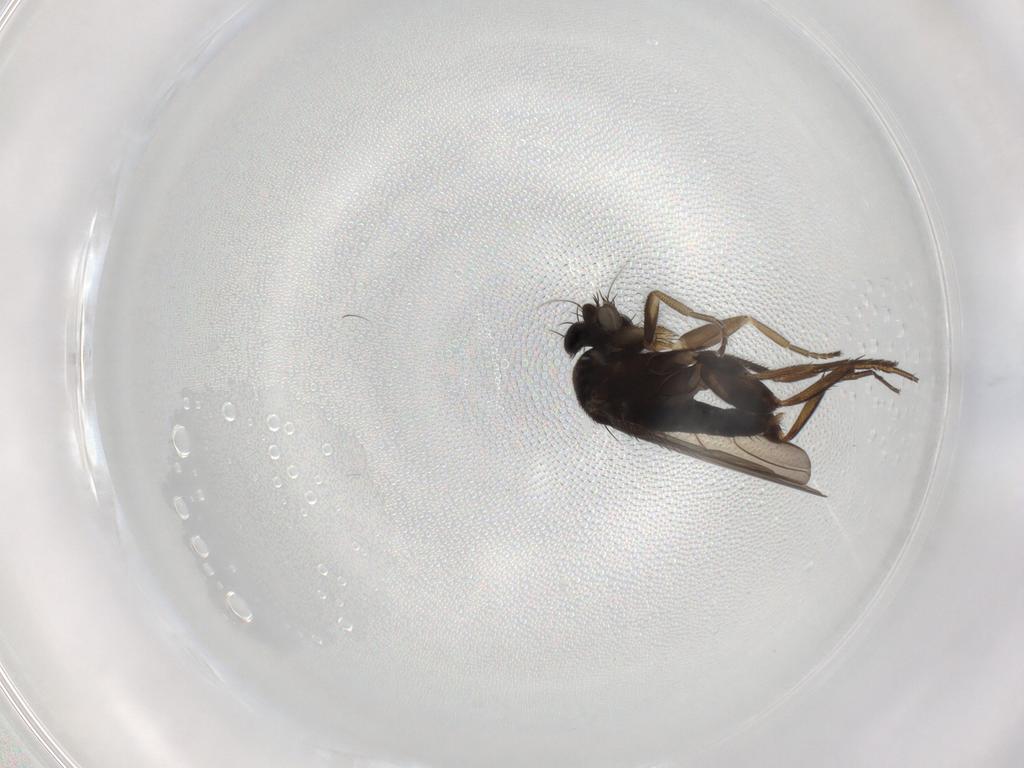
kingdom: Animalia
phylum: Arthropoda
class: Insecta
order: Diptera
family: Phoridae
